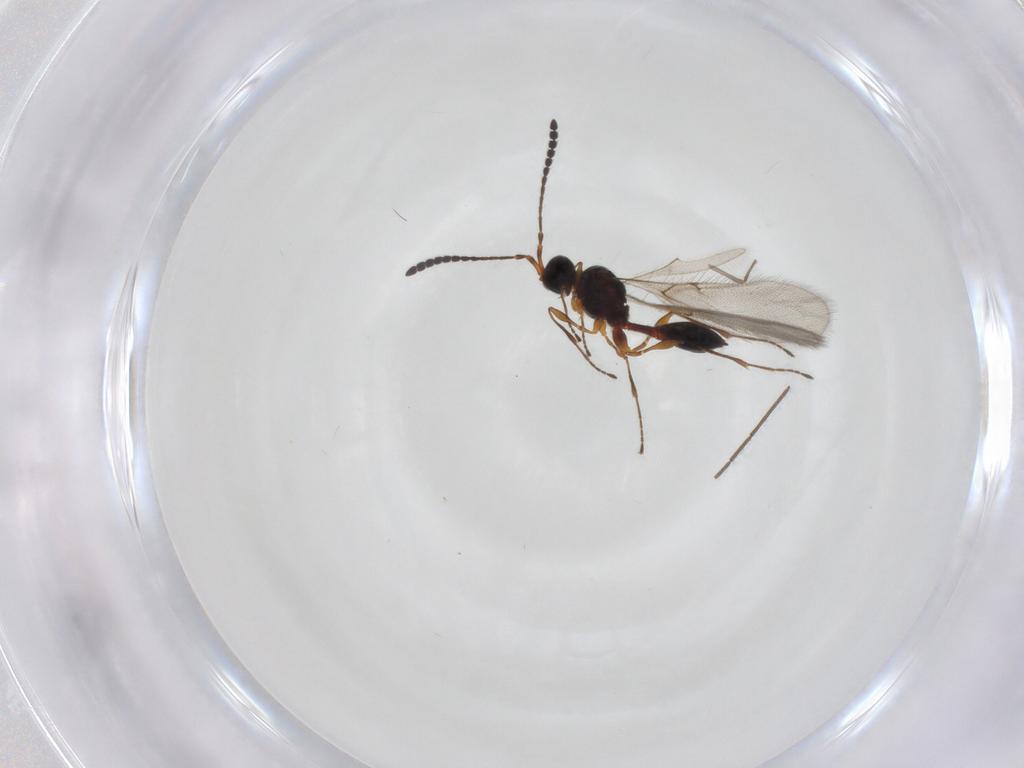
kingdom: Animalia
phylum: Arthropoda
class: Insecta
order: Hymenoptera
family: Diapriidae
